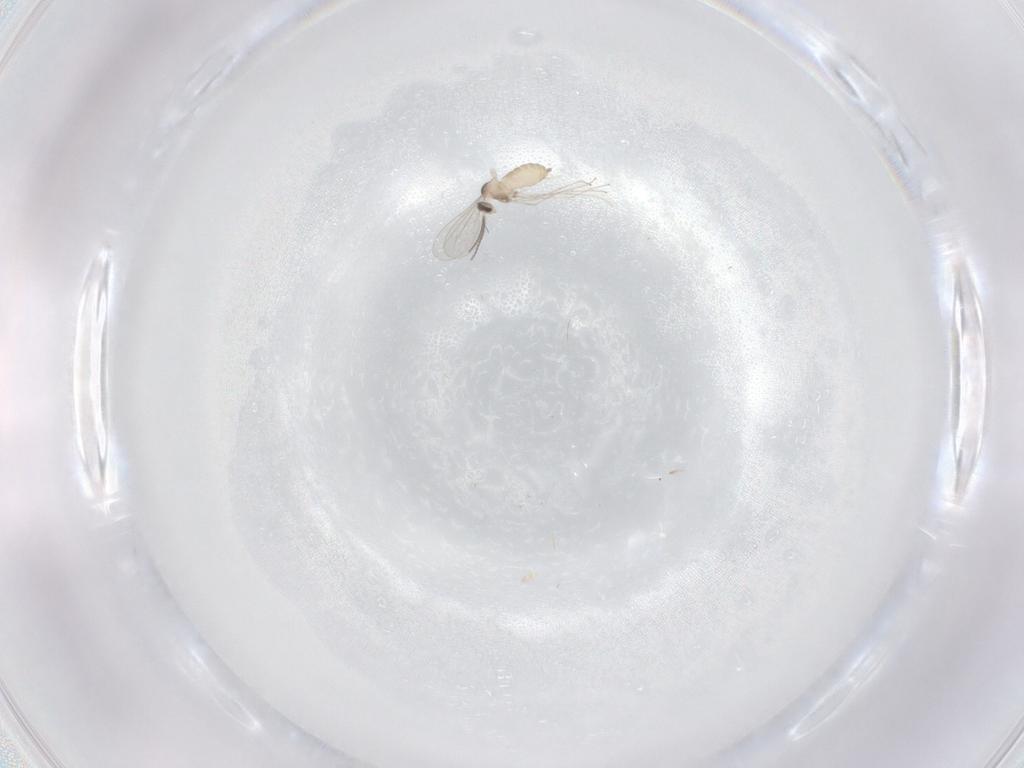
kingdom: Animalia
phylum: Arthropoda
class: Insecta
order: Diptera
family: Cecidomyiidae
